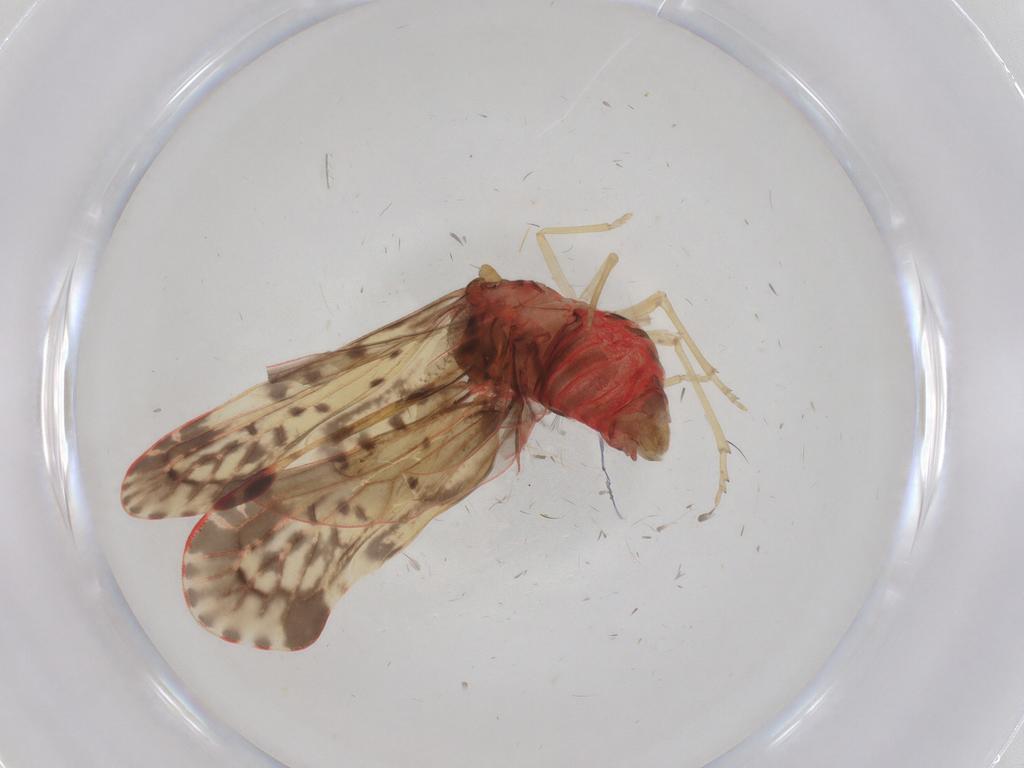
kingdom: Animalia
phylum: Arthropoda
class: Insecta
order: Hemiptera
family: Derbidae
